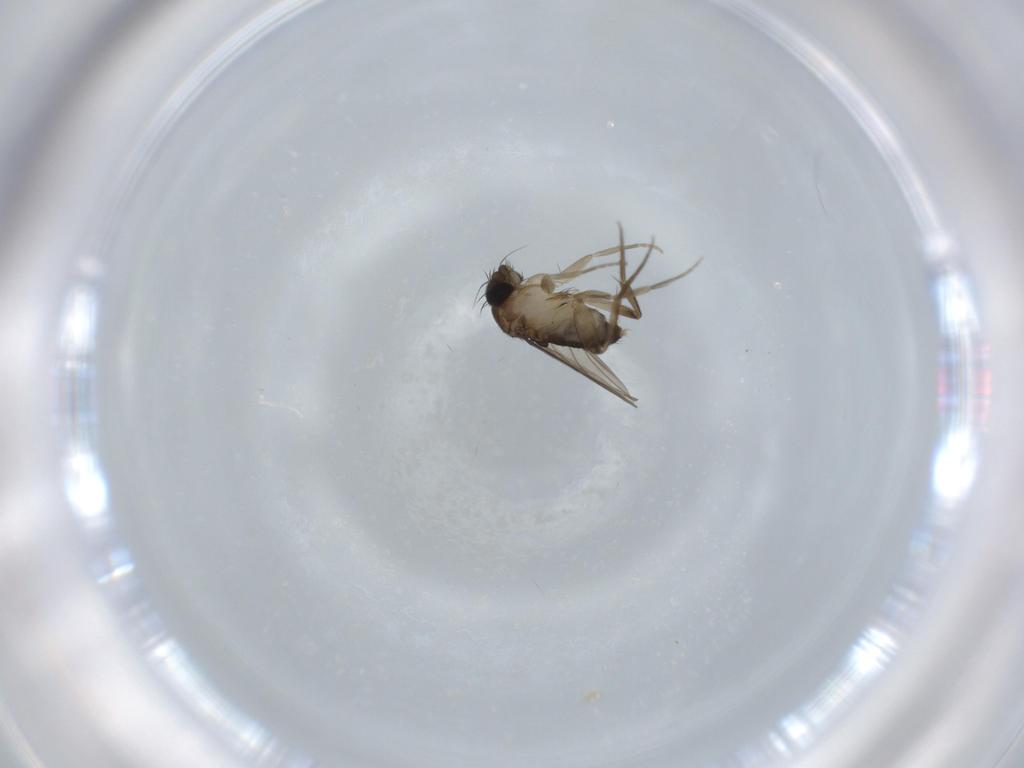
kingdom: Animalia
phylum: Arthropoda
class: Insecta
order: Diptera
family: Phoridae
